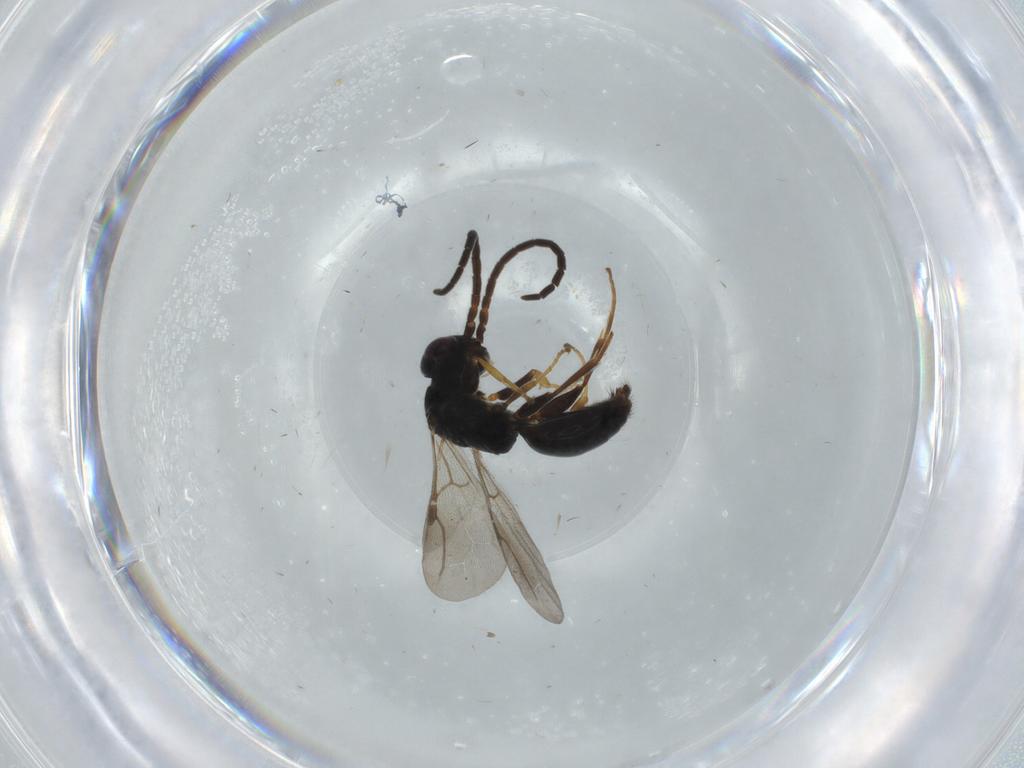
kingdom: Animalia
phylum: Arthropoda
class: Insecta
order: Hymenoptera
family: Bethylidae
